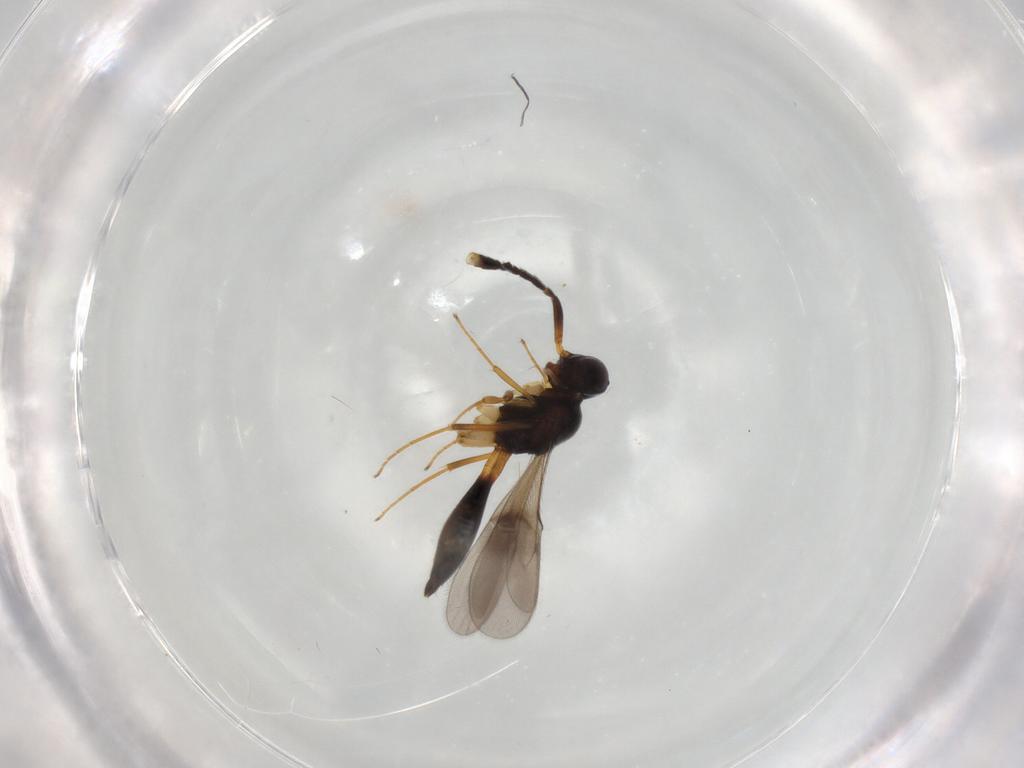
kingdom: Animalia
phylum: Arthropoda
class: Insecta
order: Hymenoptera
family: Scelionidae
